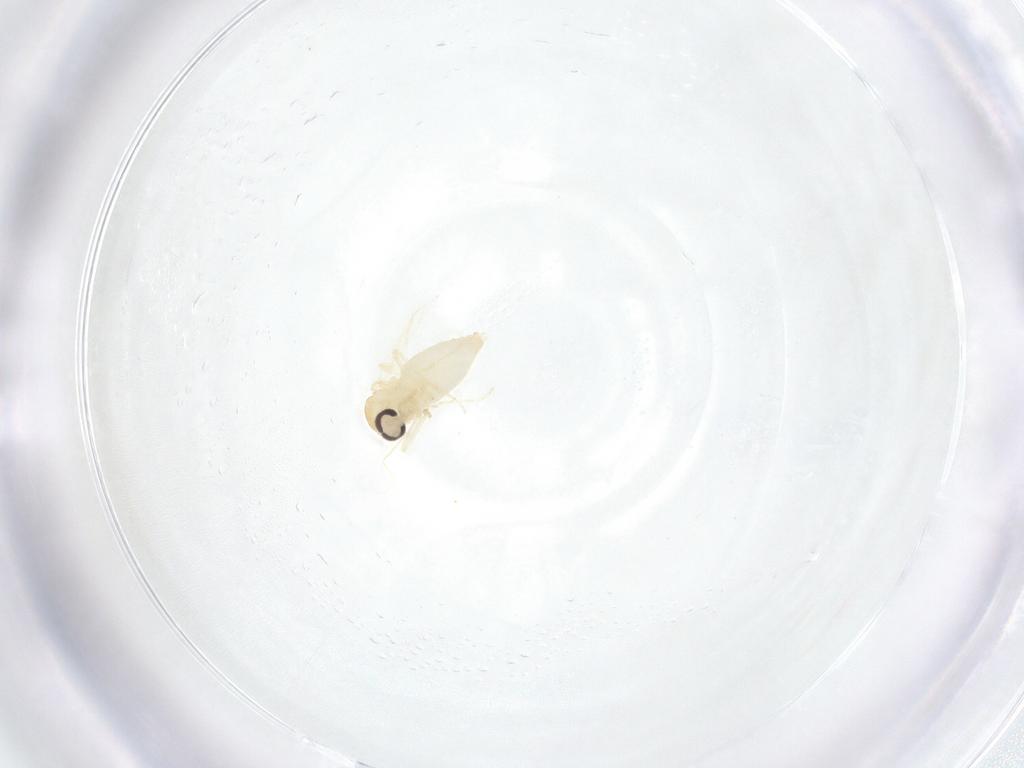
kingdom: Animalia
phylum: Arthropoda
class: Insecta
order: Diptera
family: Ceratopogonidae
